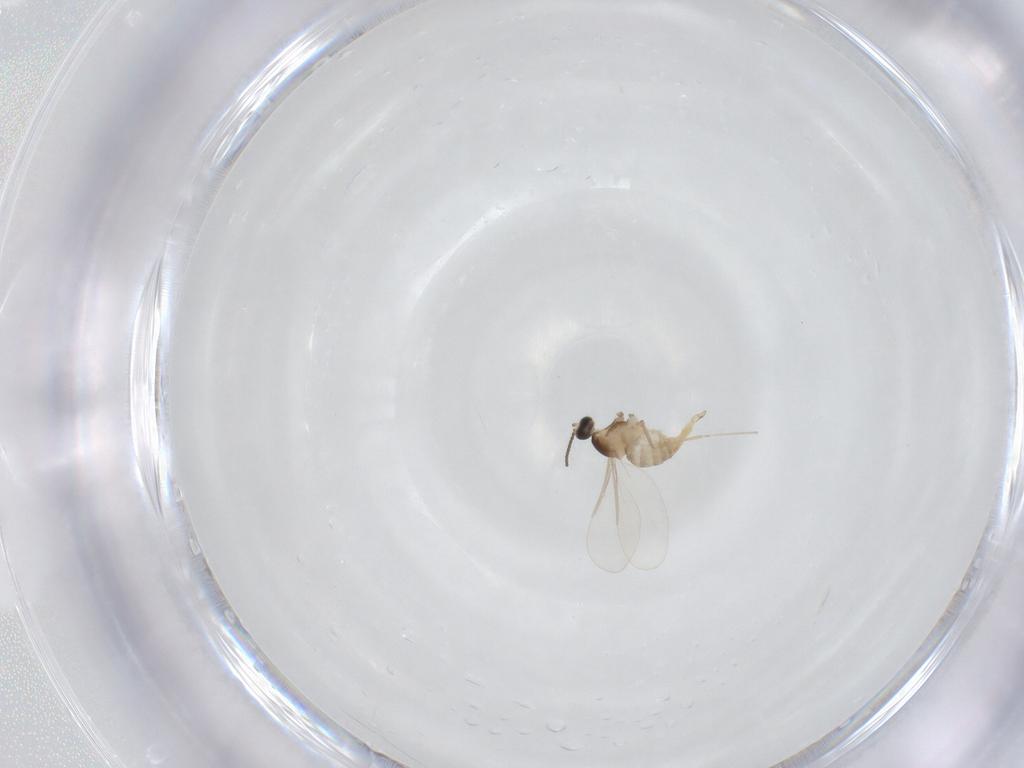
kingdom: Animalia
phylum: Arthropoda
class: Insecta
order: Diptera
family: Cecidomyiidae
